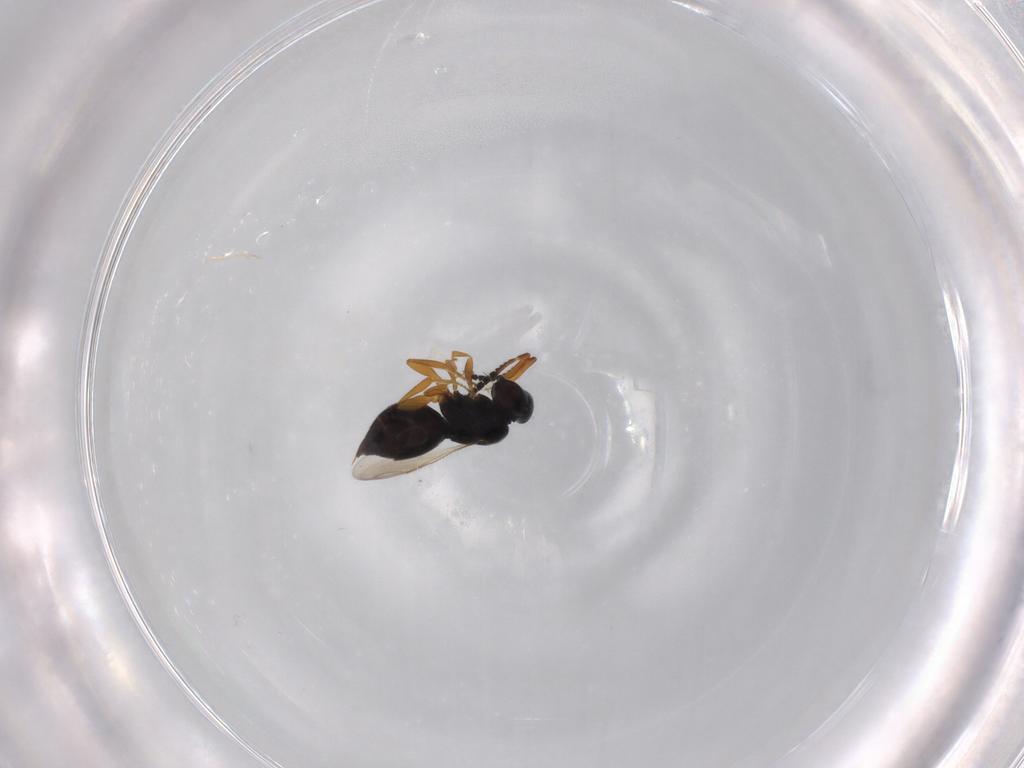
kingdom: Animalia
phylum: Arthropoda
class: Insecta
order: Hymenoptera
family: Ceraphronidae
